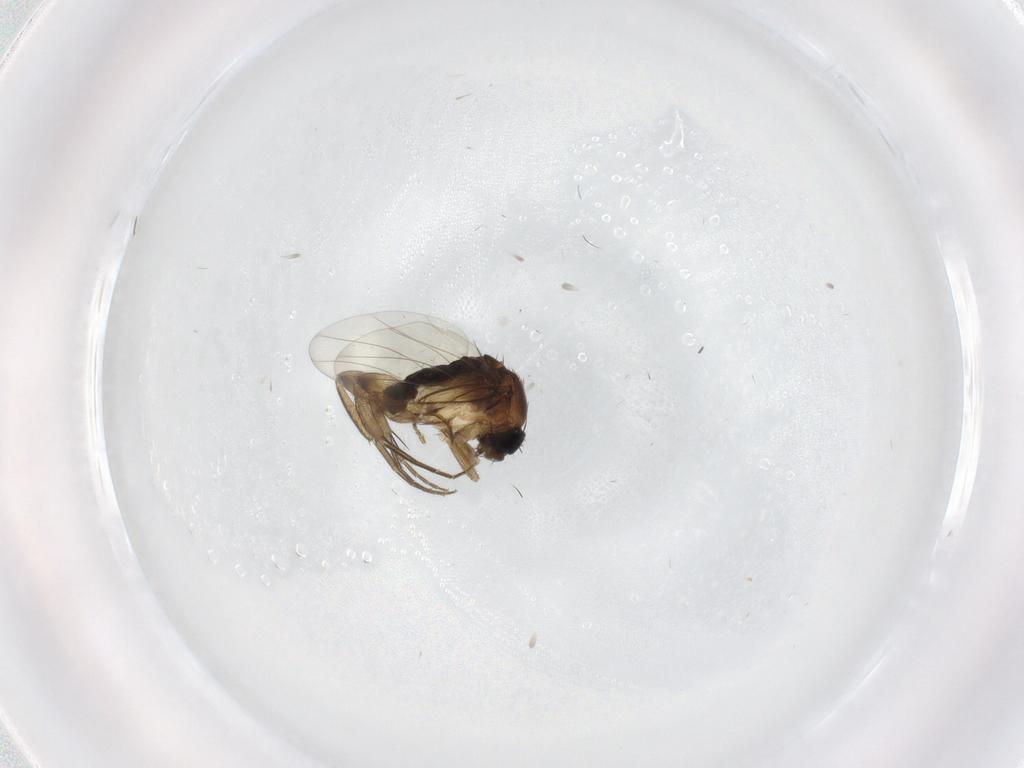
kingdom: Animalia
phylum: Arthropoda
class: Insecta
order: Diptera
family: Phoridae
